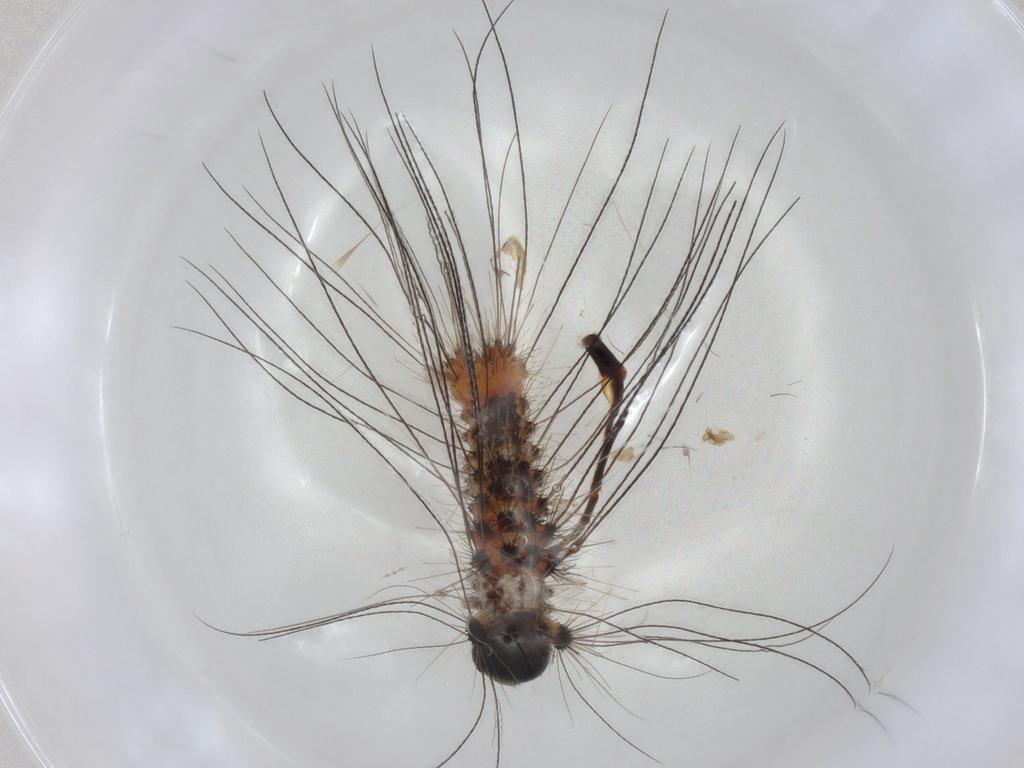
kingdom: Animalia
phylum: Arthropoda
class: Insecta
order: Lepidoptera
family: Erebidae
